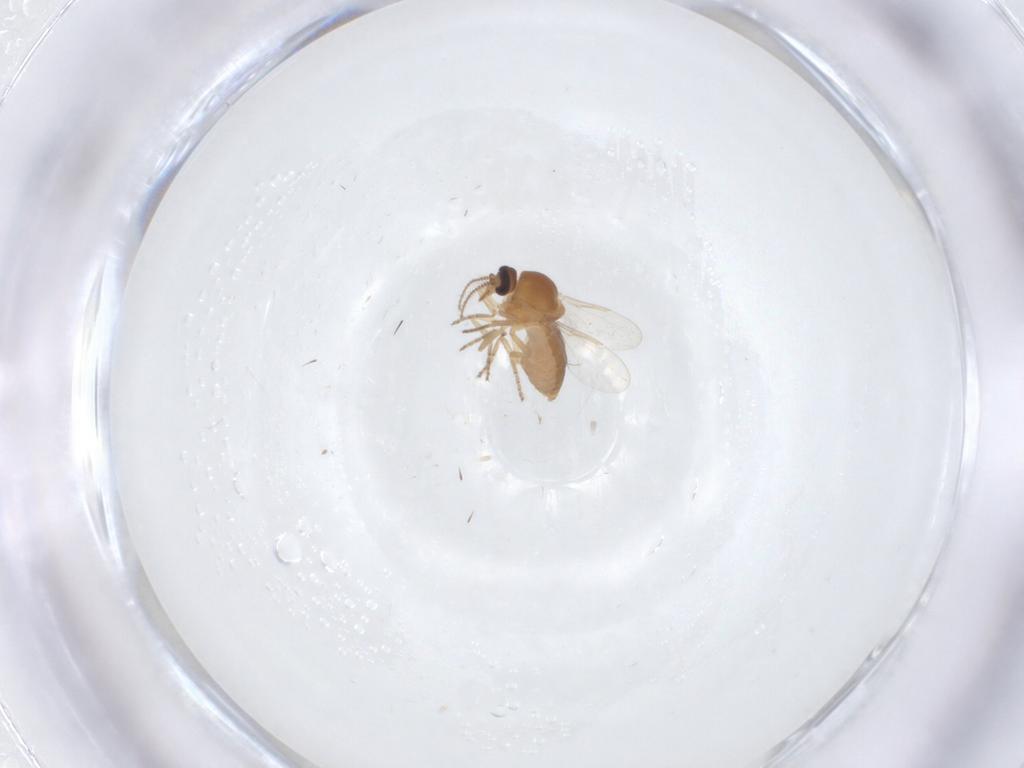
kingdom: Animalia
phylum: Arthropoda
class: Insecta
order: Diptera
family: Ceratopogonidae
